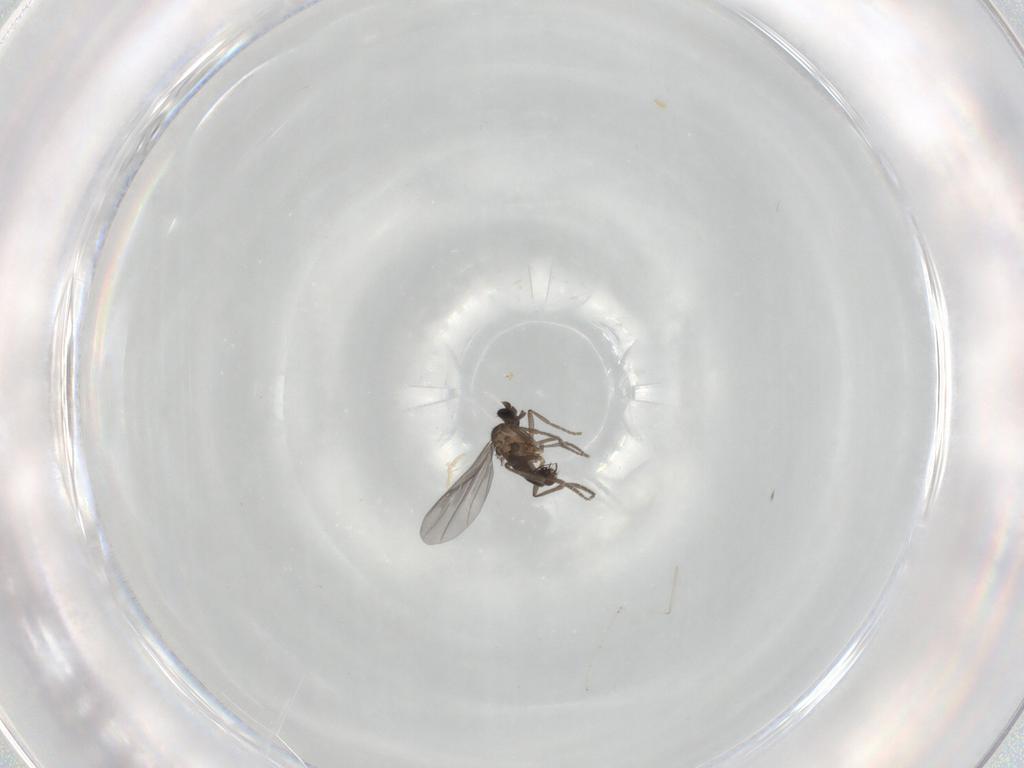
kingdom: Animalia
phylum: Arthropoda
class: Insecta
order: Diptera
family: Phoridae
